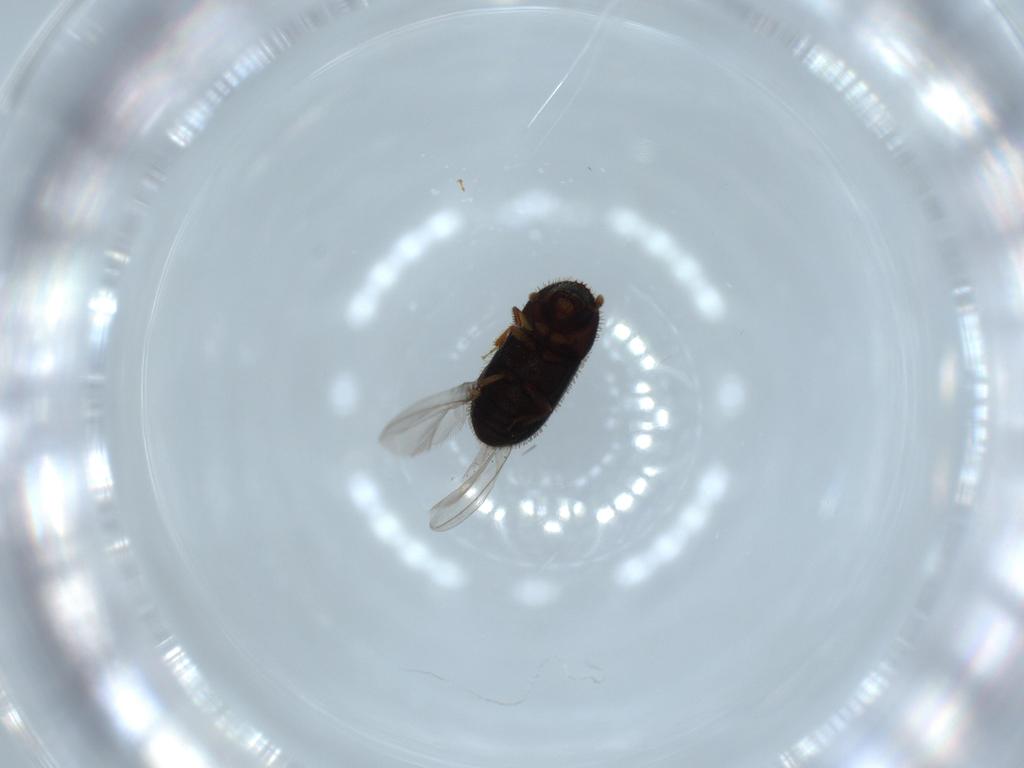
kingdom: Animalia
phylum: Arthropoda
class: Insecta
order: Coleoptera
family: Curculionidae
